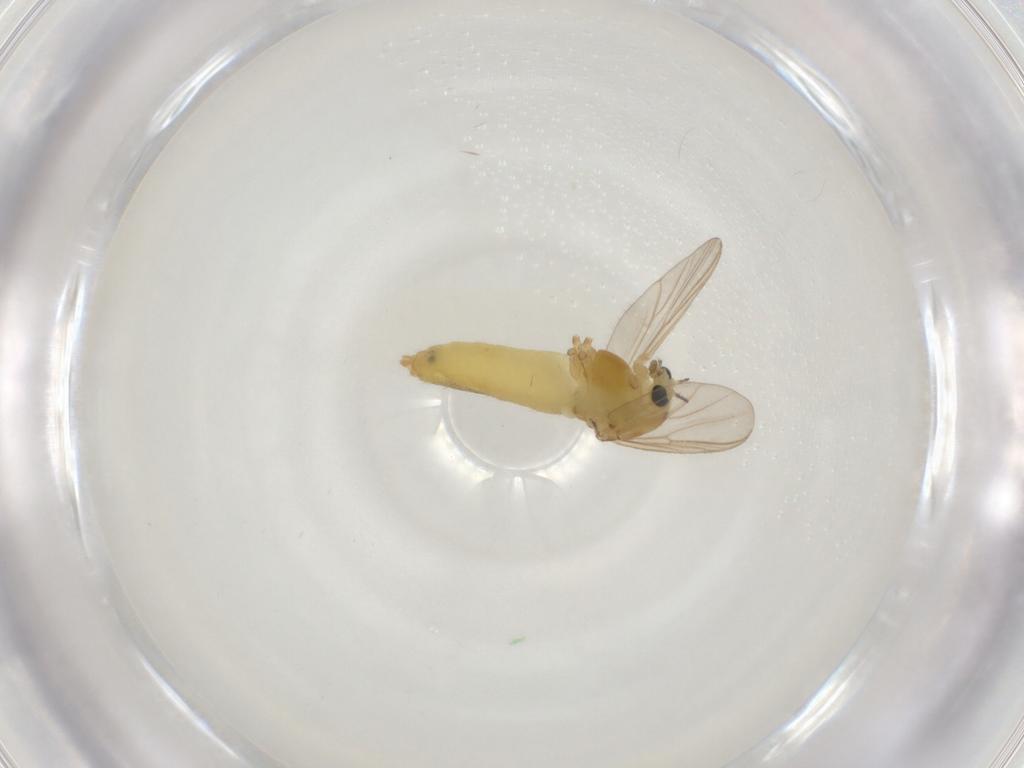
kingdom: Animalia
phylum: Arthropoda
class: Insecta
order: Diptera
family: Chironomidae
